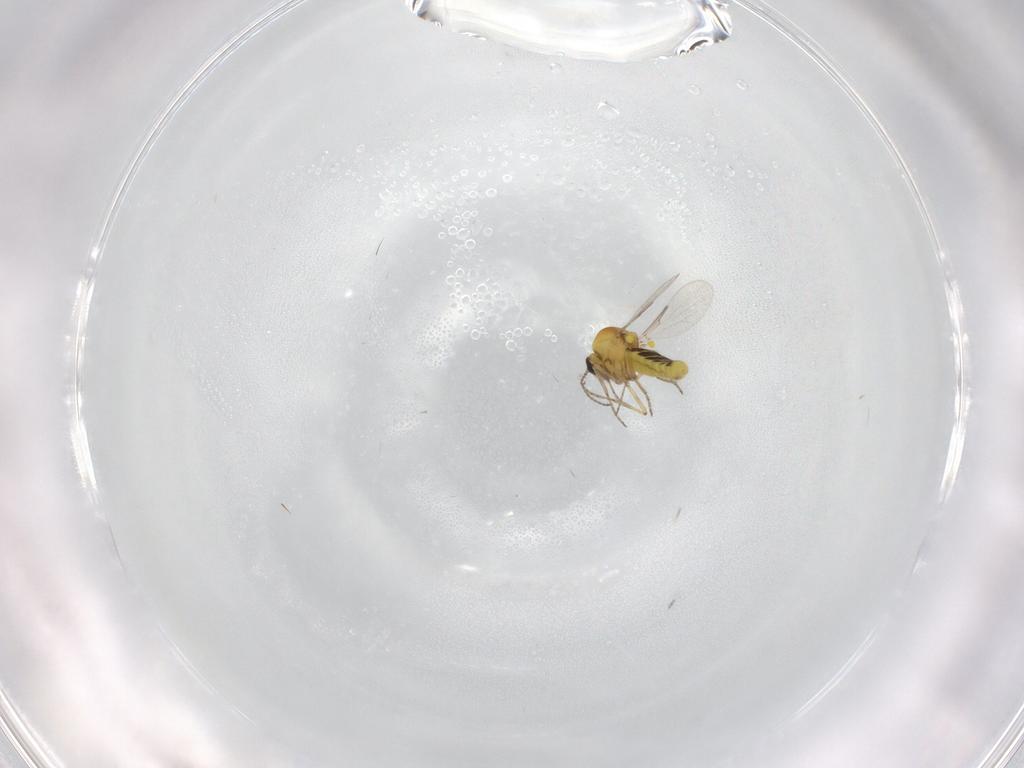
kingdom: Animalia
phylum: Arthropoda
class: Insecta
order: Diptera
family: Ceratopogonidae
